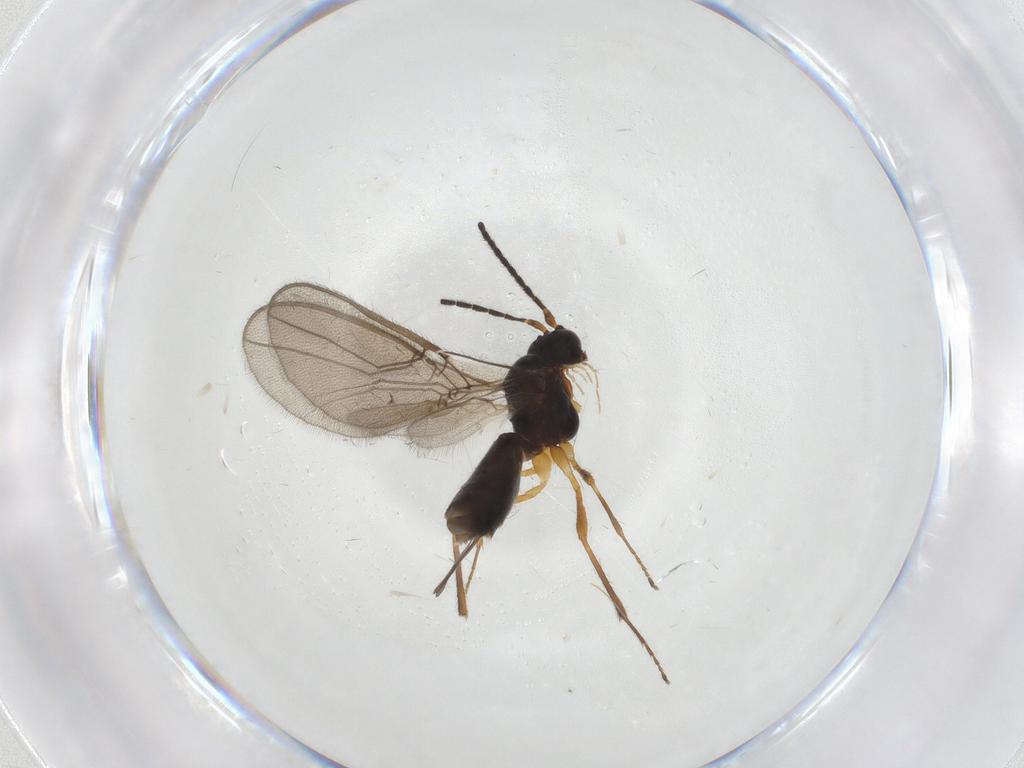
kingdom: Animalia
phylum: Arthropoda
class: Insecta
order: Hymenoptera
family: Braconidae
